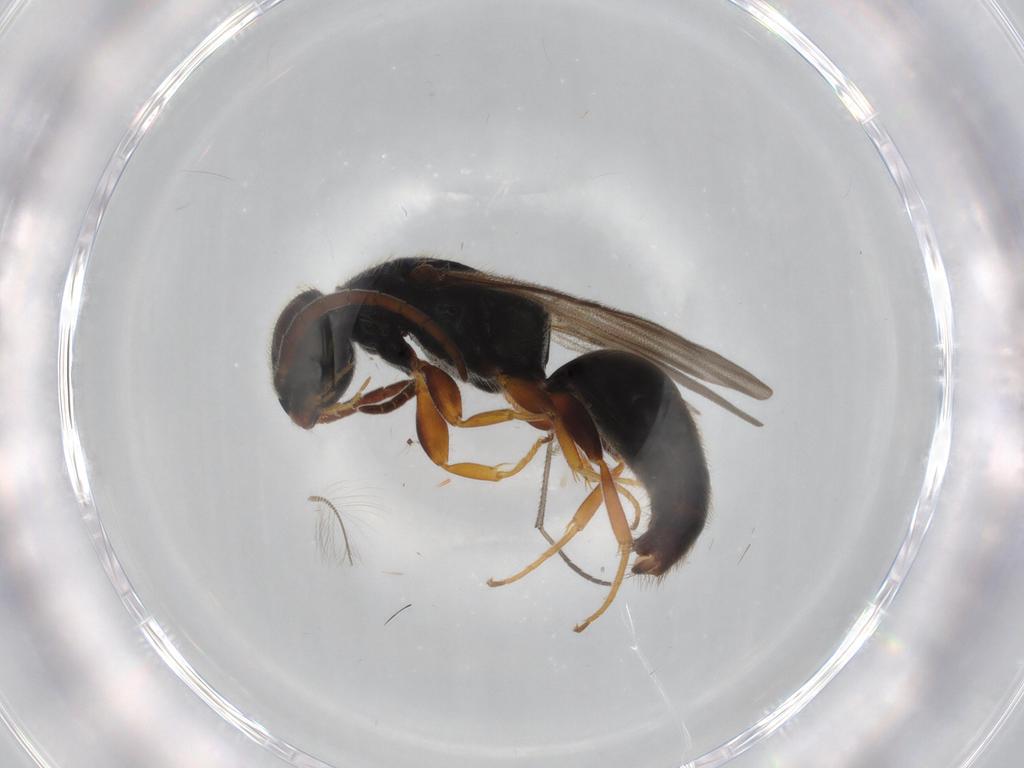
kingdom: Animalia
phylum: Arthropoda
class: Insecta
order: Hymenoptera
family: Bethylidae
